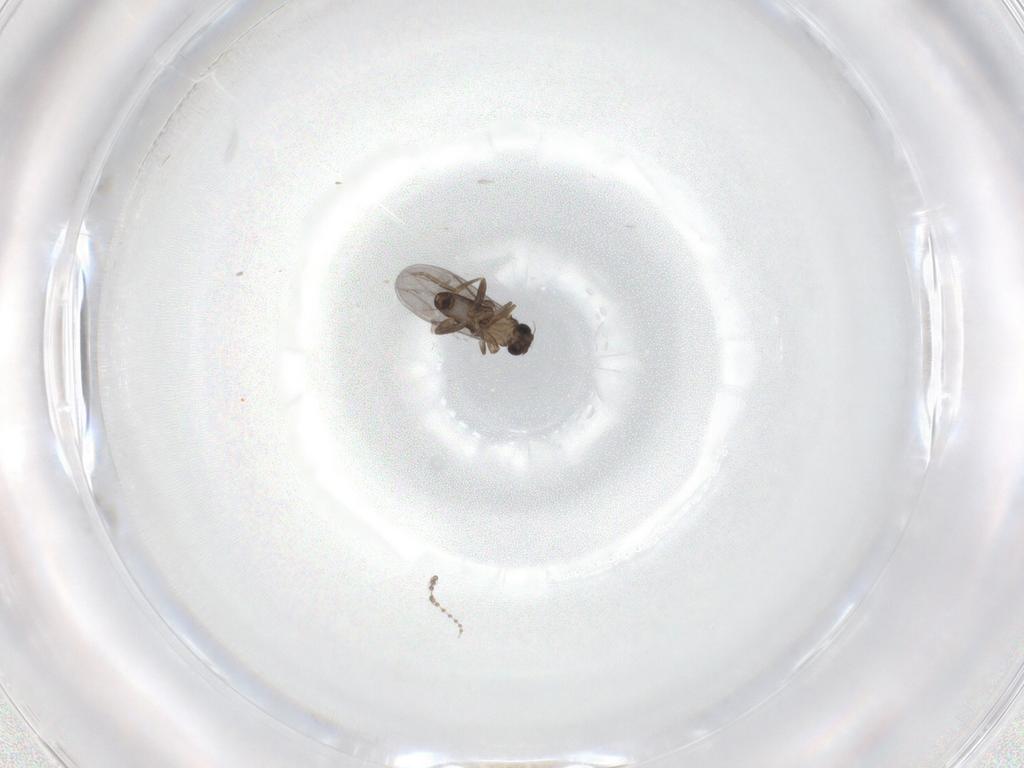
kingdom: Animalia
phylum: Arthropoda
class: Insecta
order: Diptera
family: Psychodidae
